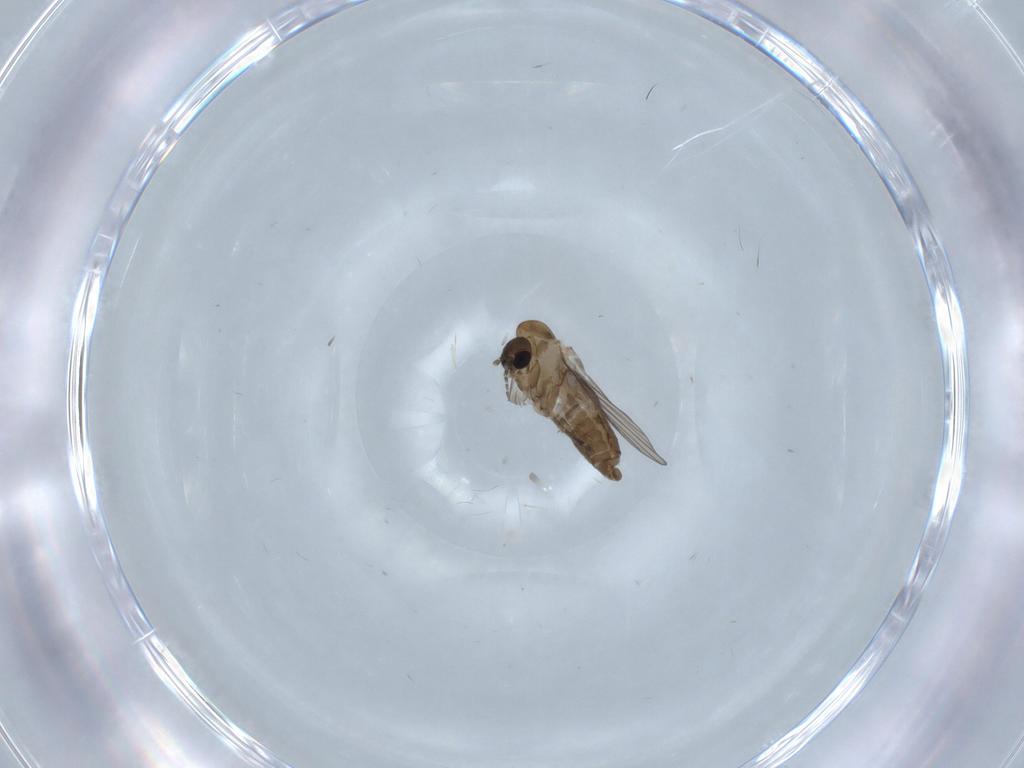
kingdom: Animalia
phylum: Arthropoda
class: Insecta
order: Diptera
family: Psychodidae
